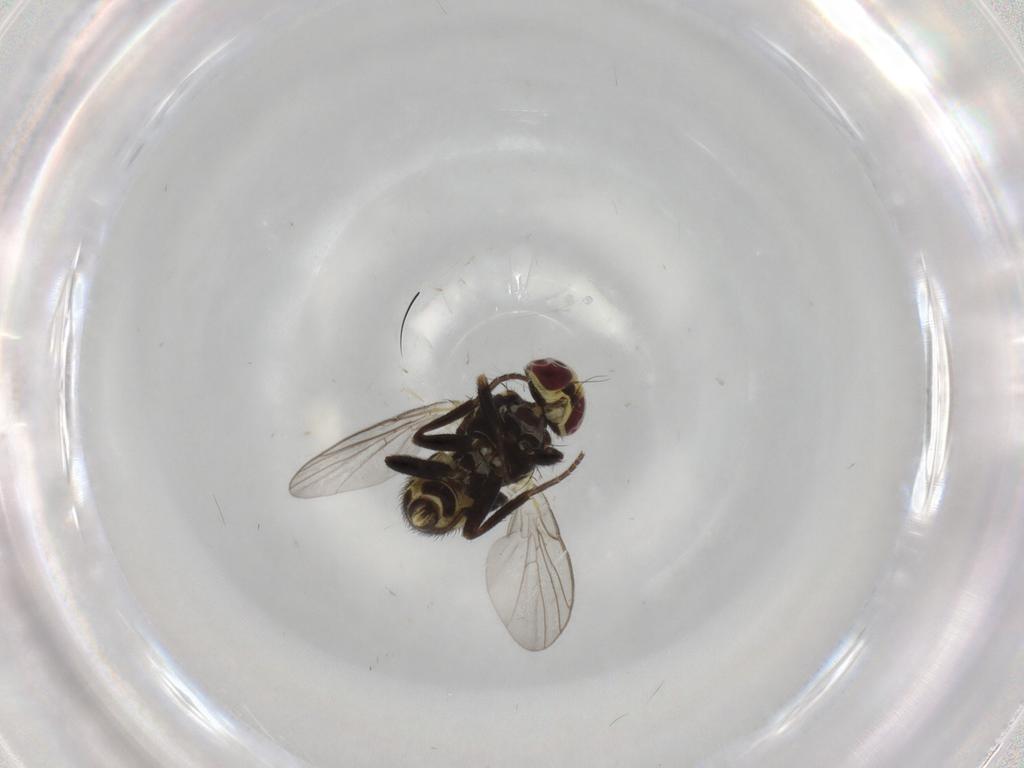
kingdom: Animalia
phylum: Arthropoda
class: Insecta
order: Diptera
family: Agromyzidae
